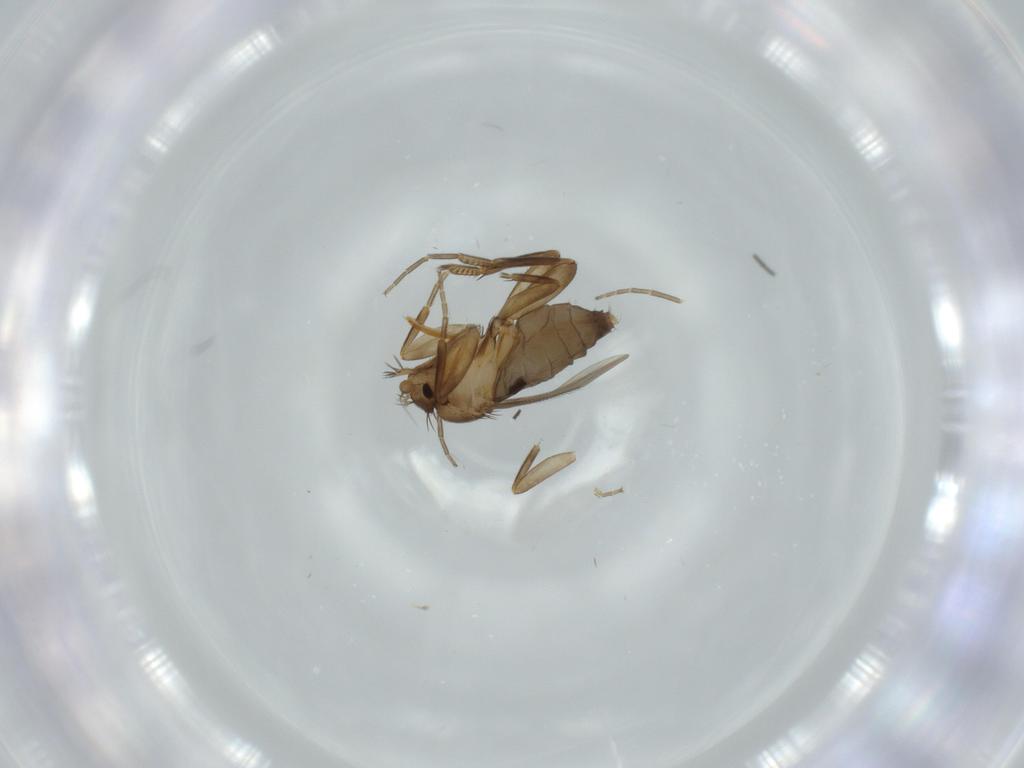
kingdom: Animalia
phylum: Arthropoda
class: Insecta
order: Diptera
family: Phoridae
